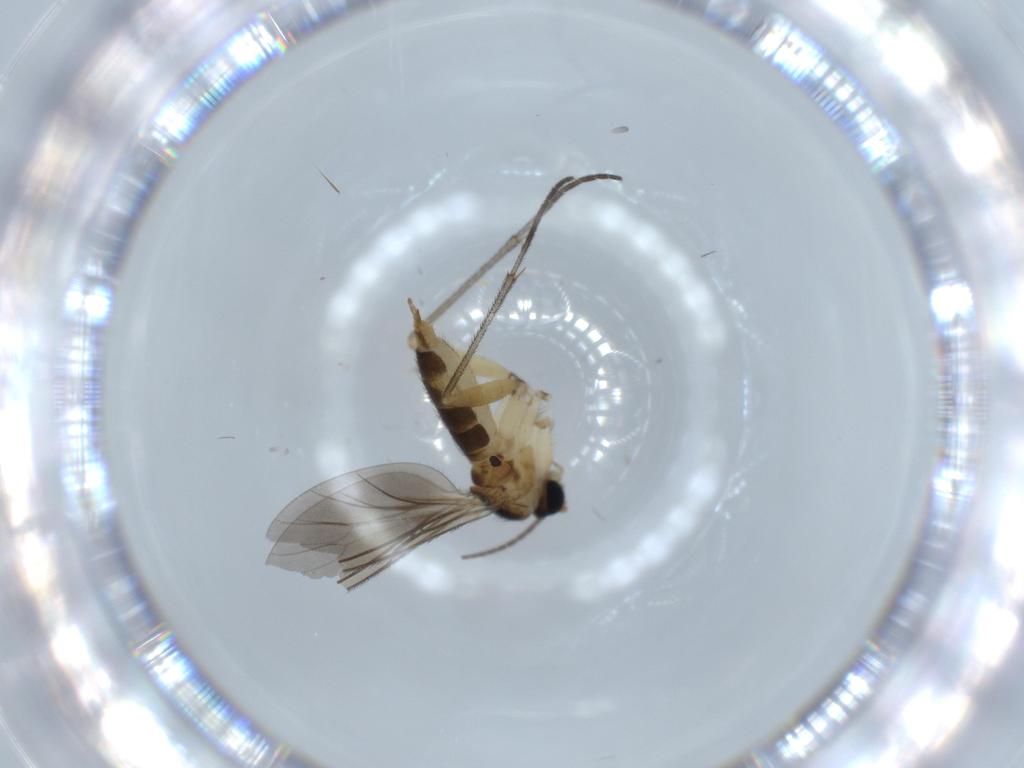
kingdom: Animalia
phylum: Arthropoda
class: Insecta
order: Diptera
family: Sciaridae
